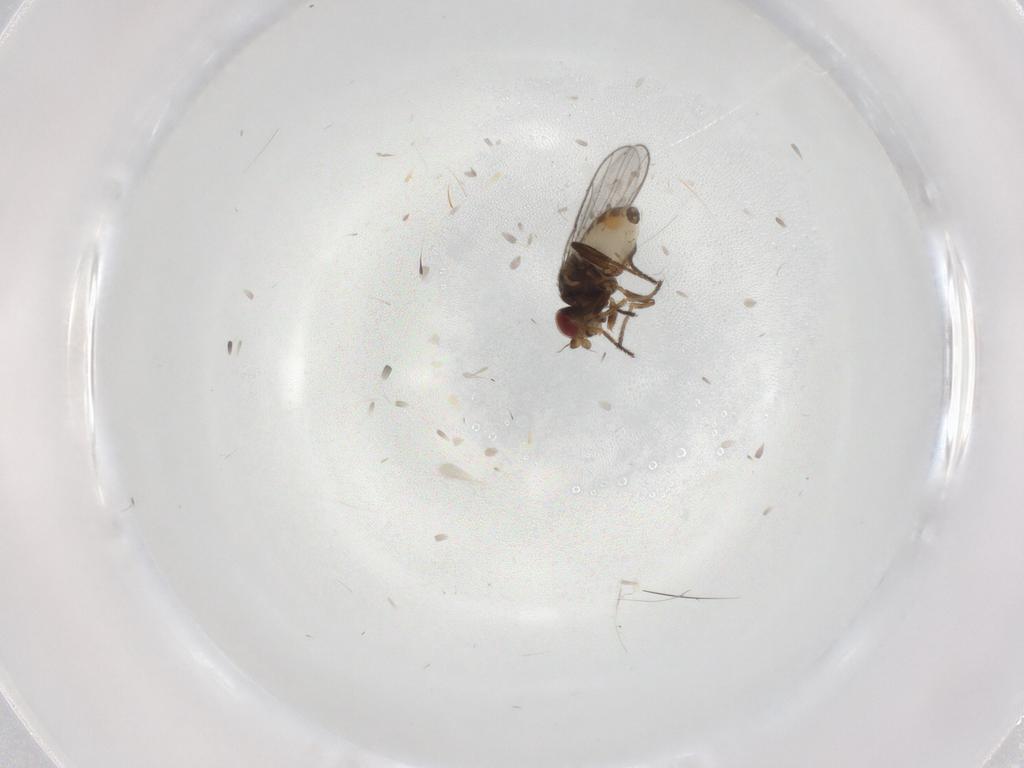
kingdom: Animalia
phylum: Arthropoda
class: Insecta
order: Diptera
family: Chloropidae
